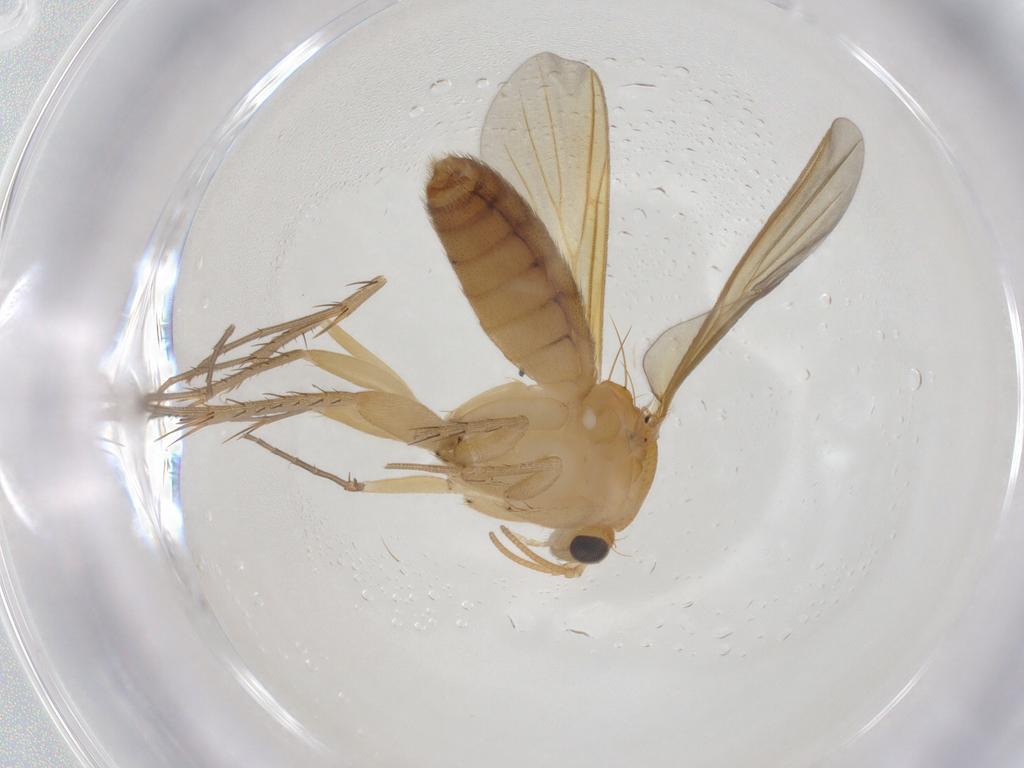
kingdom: Animalia
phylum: Arthropoda
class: Insecta
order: Diptera
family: Mycetophilidae
